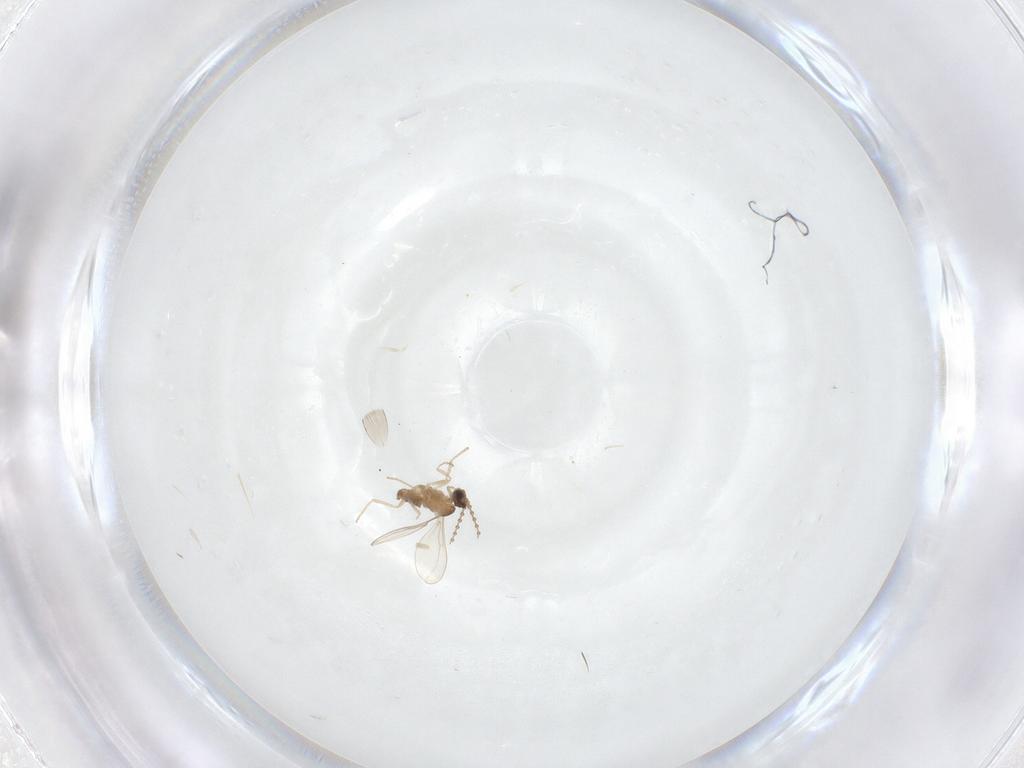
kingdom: Animalia
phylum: Arthropoda
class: Insecta
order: Diptera
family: Cecidomyiidae
